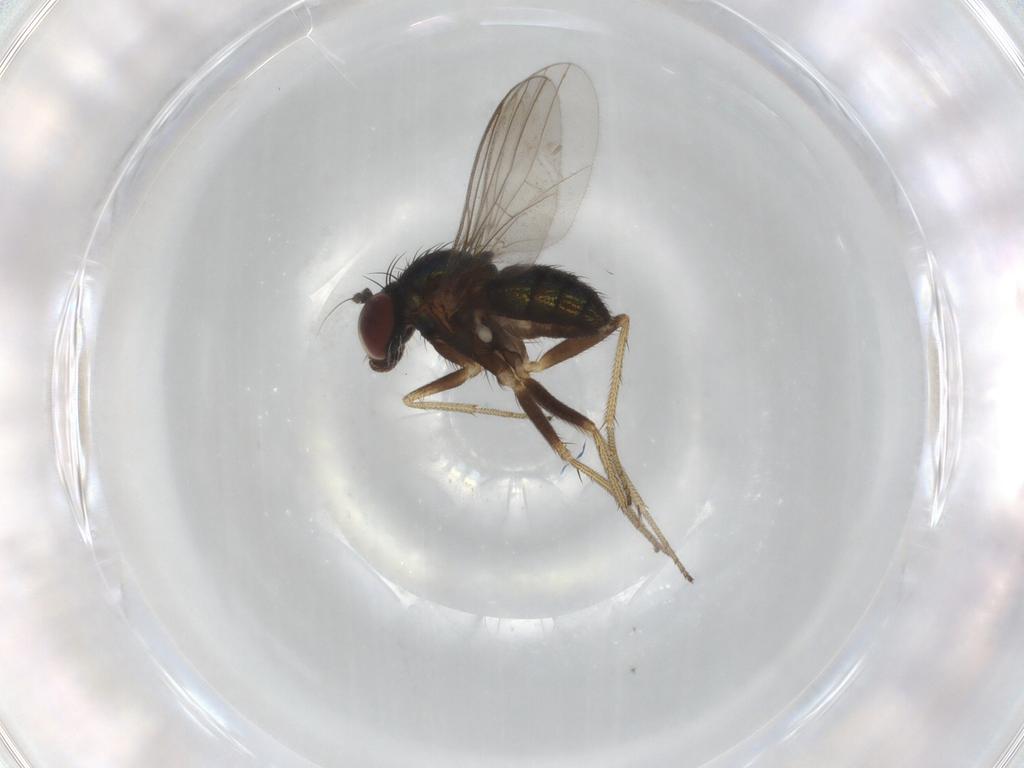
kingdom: Animalia
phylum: Arthropoda
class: Insecta
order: Diptera
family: Dolichopodidae
